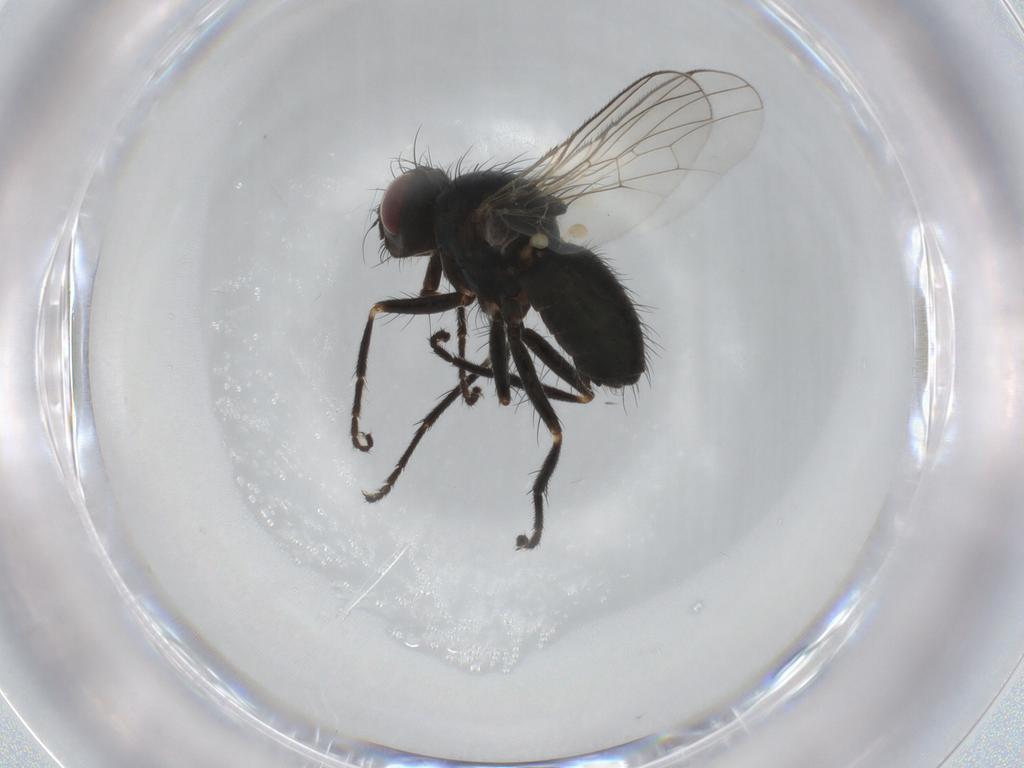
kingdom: Animalia
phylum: Arthropoda
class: Insecta
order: Diptera
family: Muscidae
